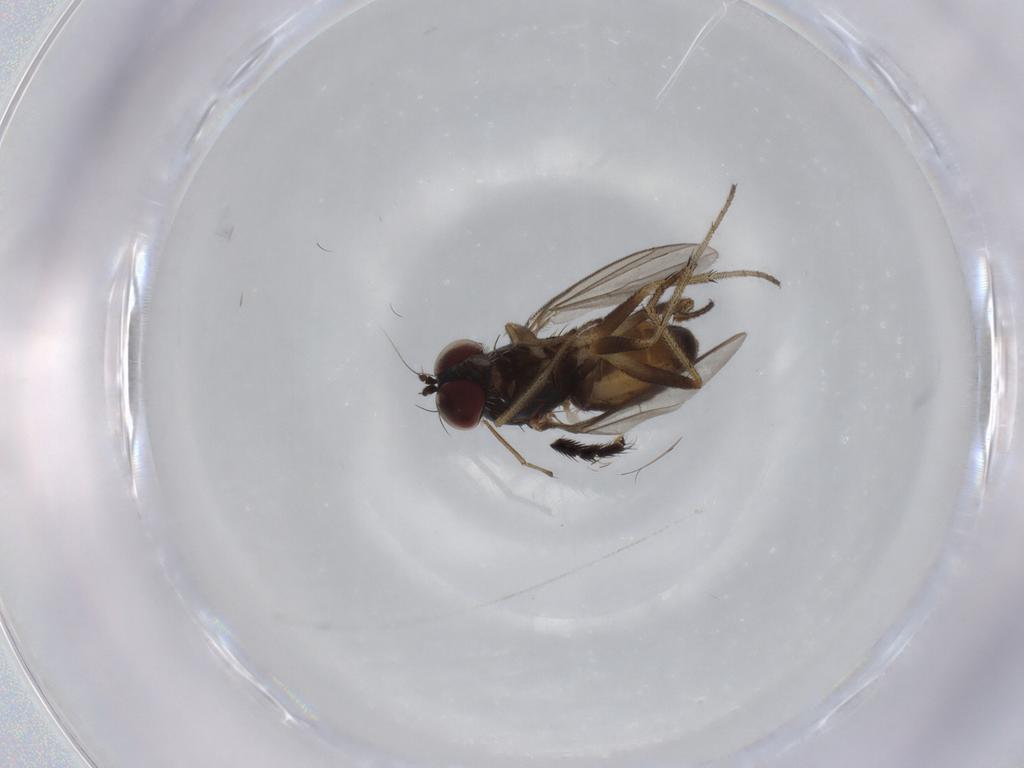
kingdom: Animalia
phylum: Arthropoda
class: Insecta
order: Diptera
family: Dolichopodidae
